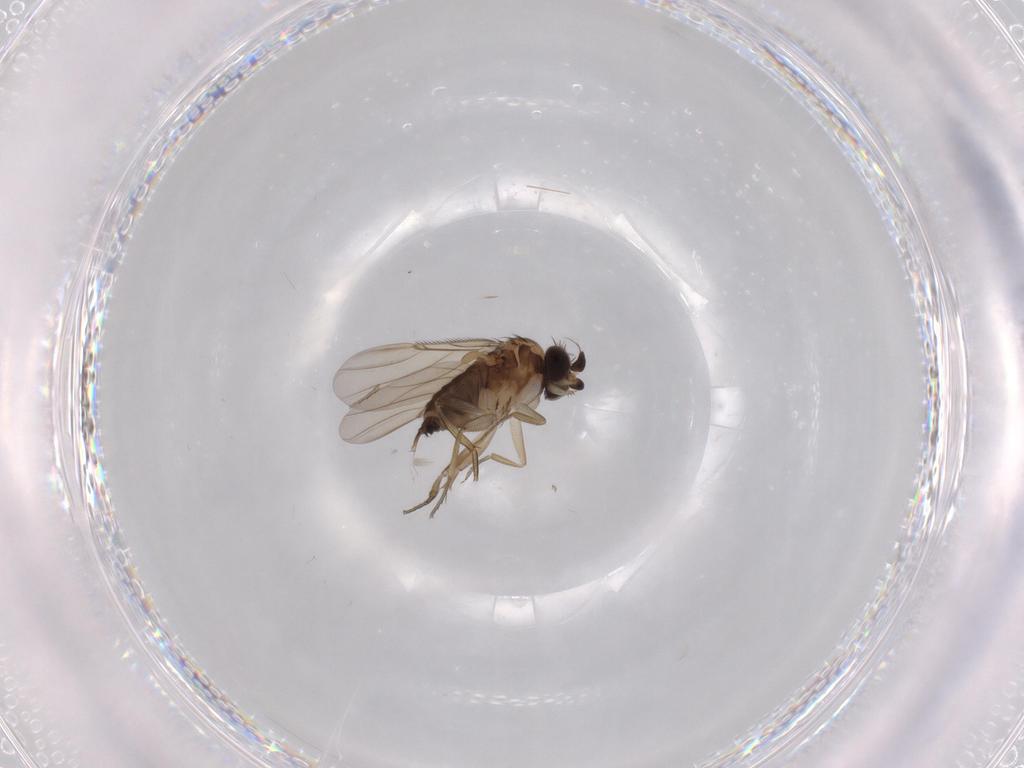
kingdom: Animalia
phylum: Arthropoda
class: Insecta
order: Diptera
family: Phoridae
